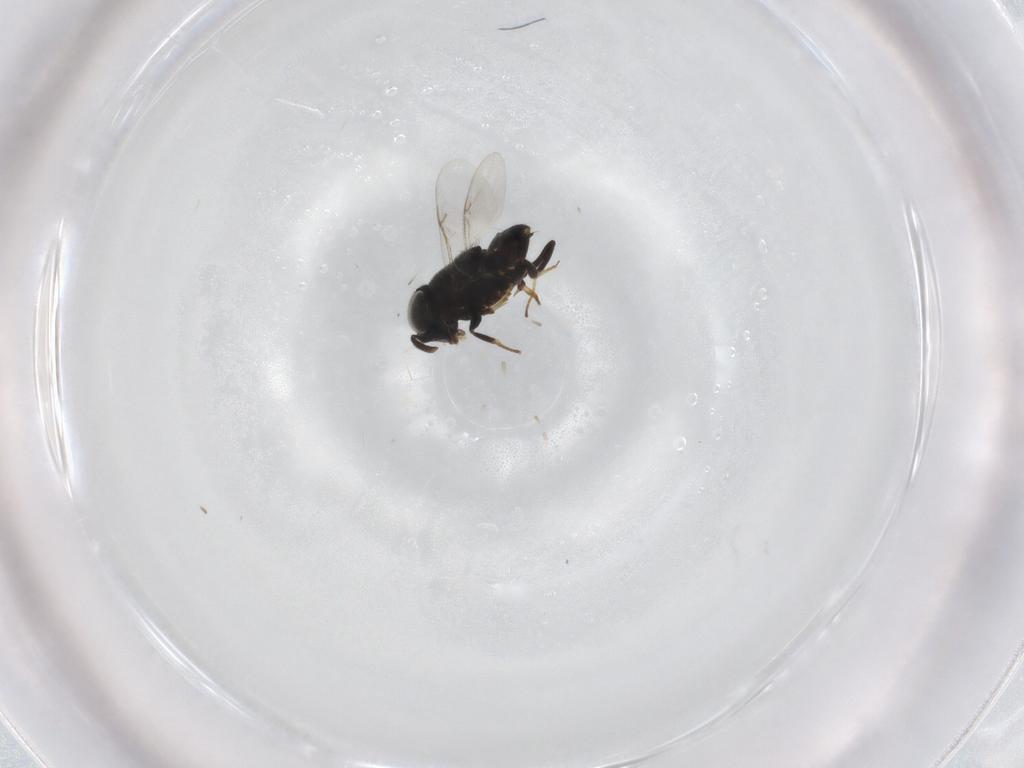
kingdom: Animalia
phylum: Arthropoda
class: Insecta
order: Hymenoptera
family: Encyrtidae
